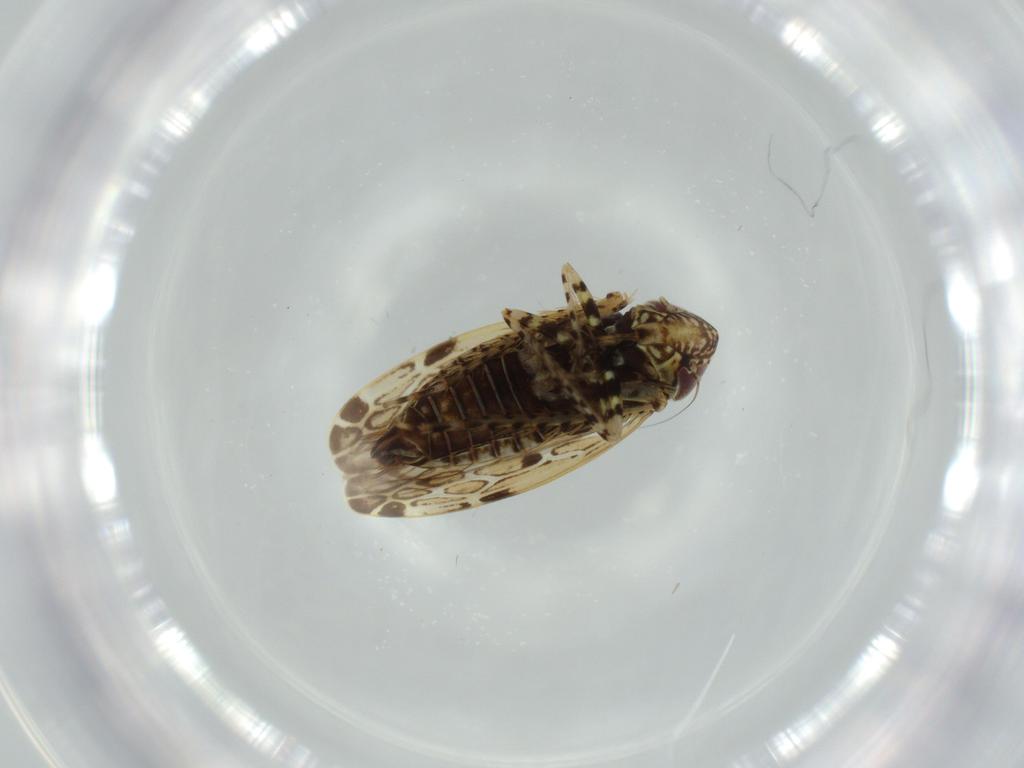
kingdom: Animalia
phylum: Arthropoda
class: Insecta
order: Hemiptera
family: Cicadellidae
